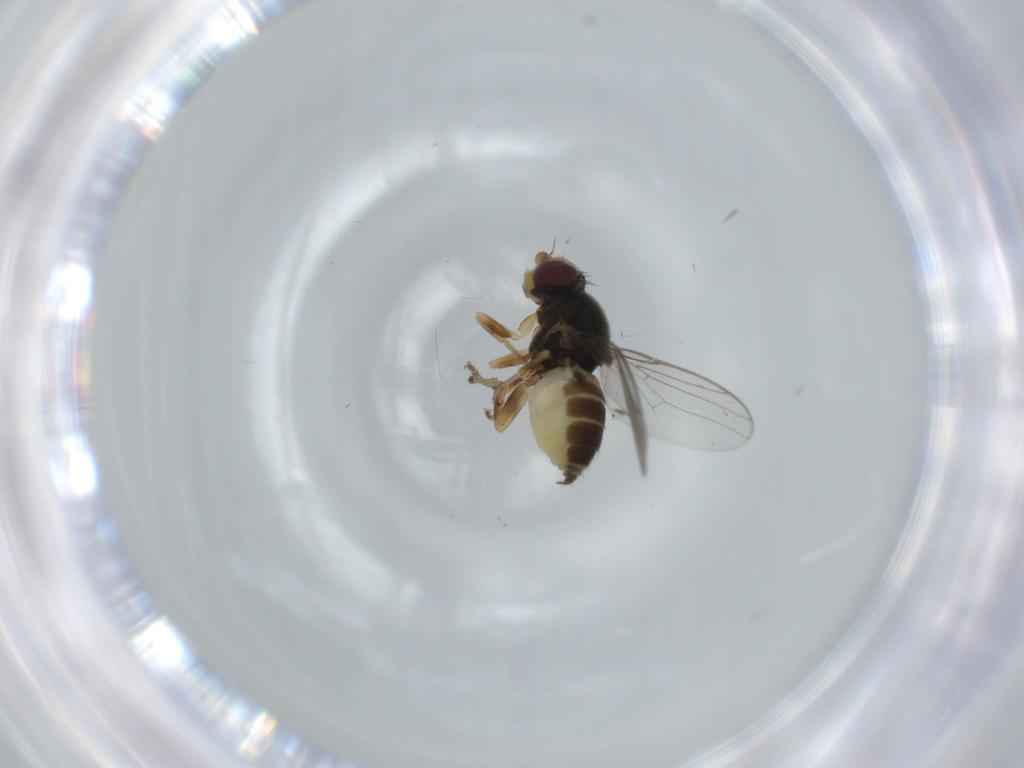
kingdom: Animalia
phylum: Arthropoda
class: Insecta
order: Diptera
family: Chloropidae
